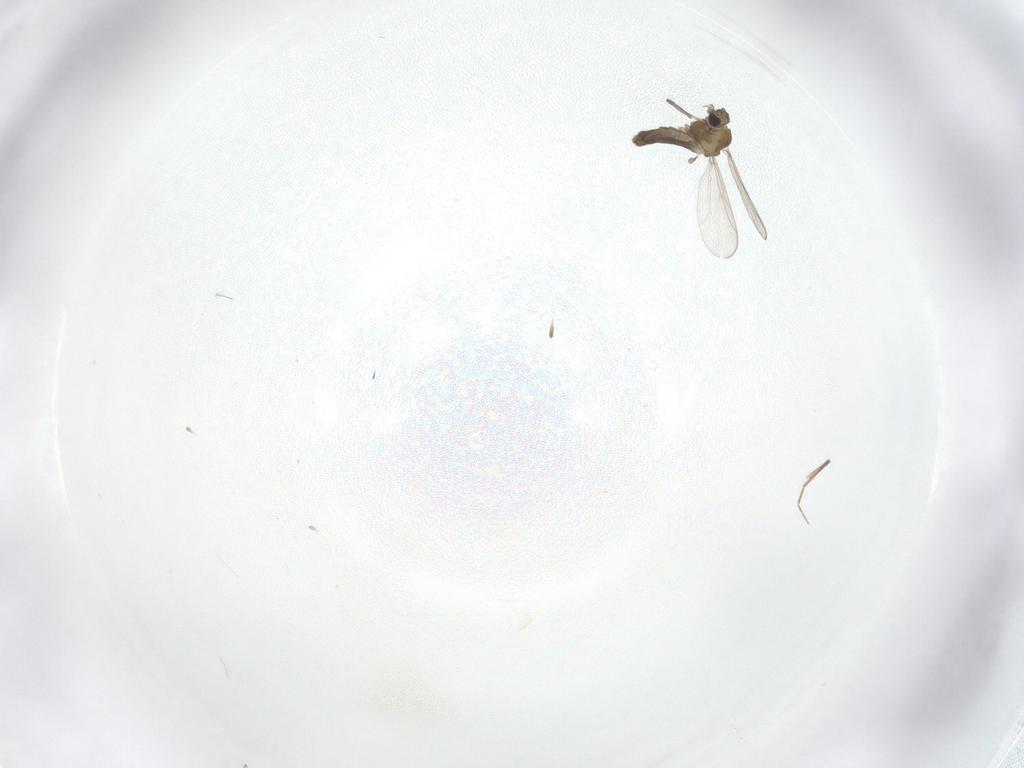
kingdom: Animalia
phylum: Arthropoda
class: Insecta
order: Diptera
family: Chironomidae
